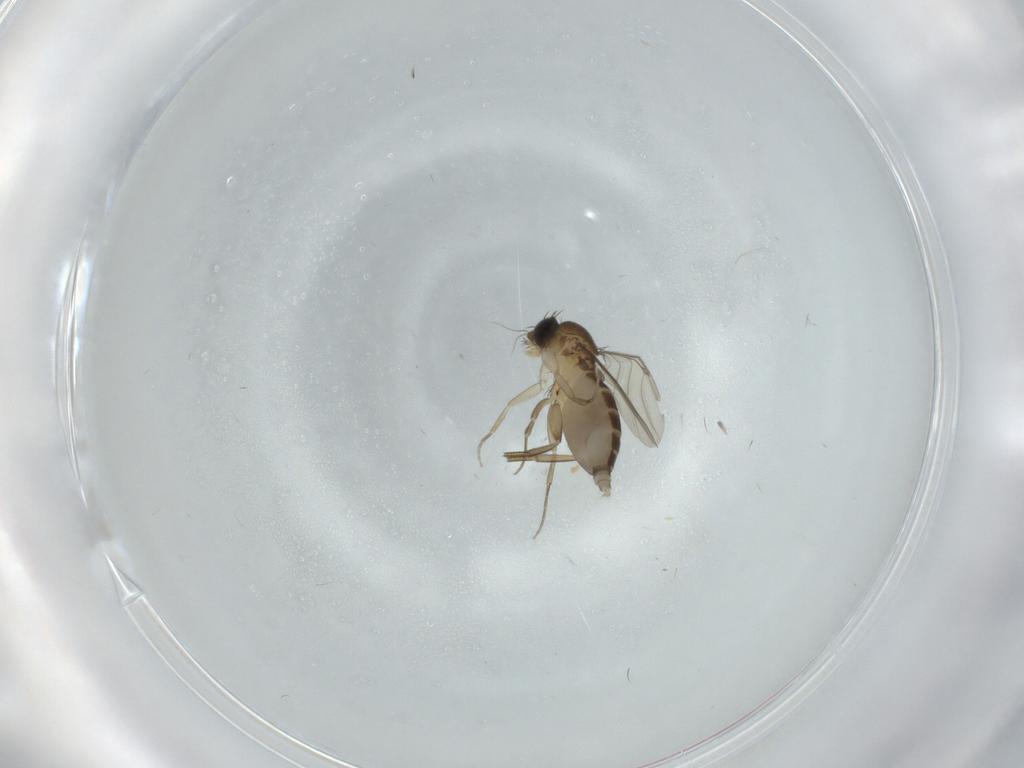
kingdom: Animalia
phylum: Arthropoda
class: Insecta
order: Diptera
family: Phoridae
